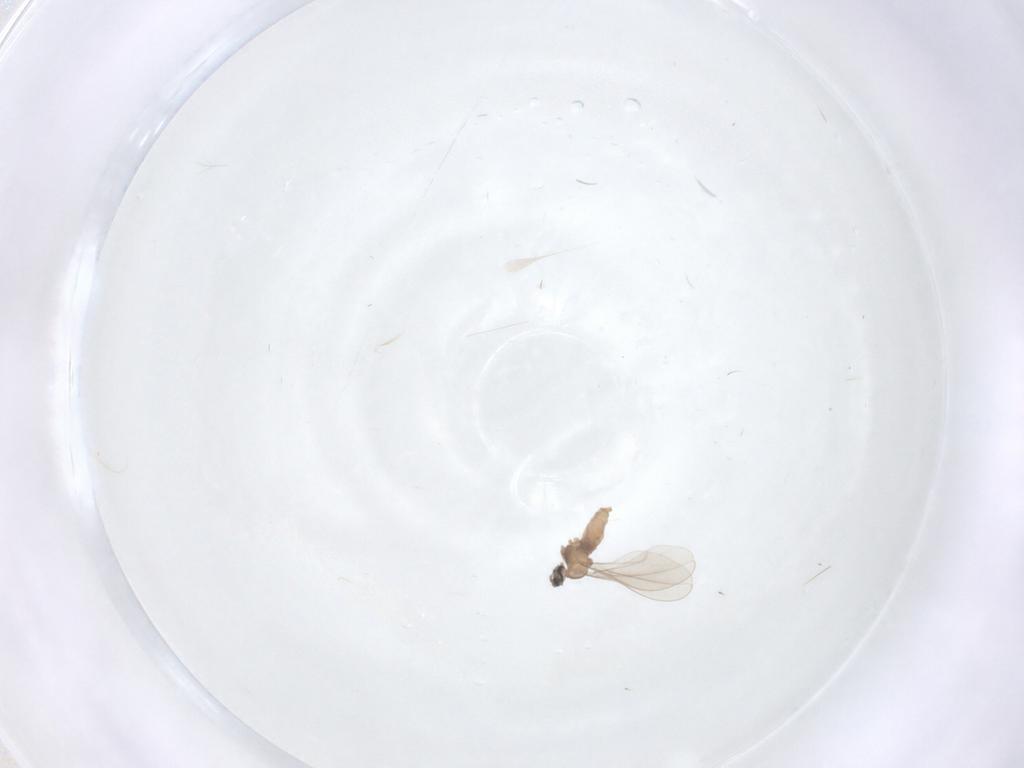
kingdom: Animalia
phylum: Arthropoda
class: Insecta
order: Diptera
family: Cecidomyiidae
